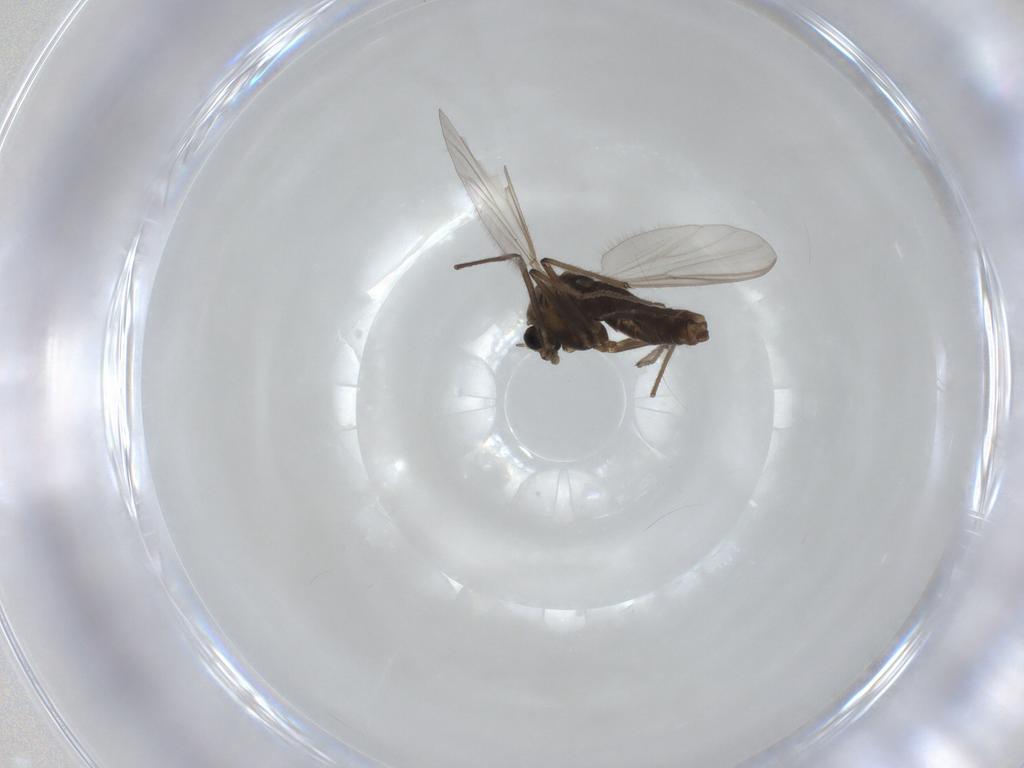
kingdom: Animalia
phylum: Arthropoda
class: Insecta
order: Diptera
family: Chironomidae
